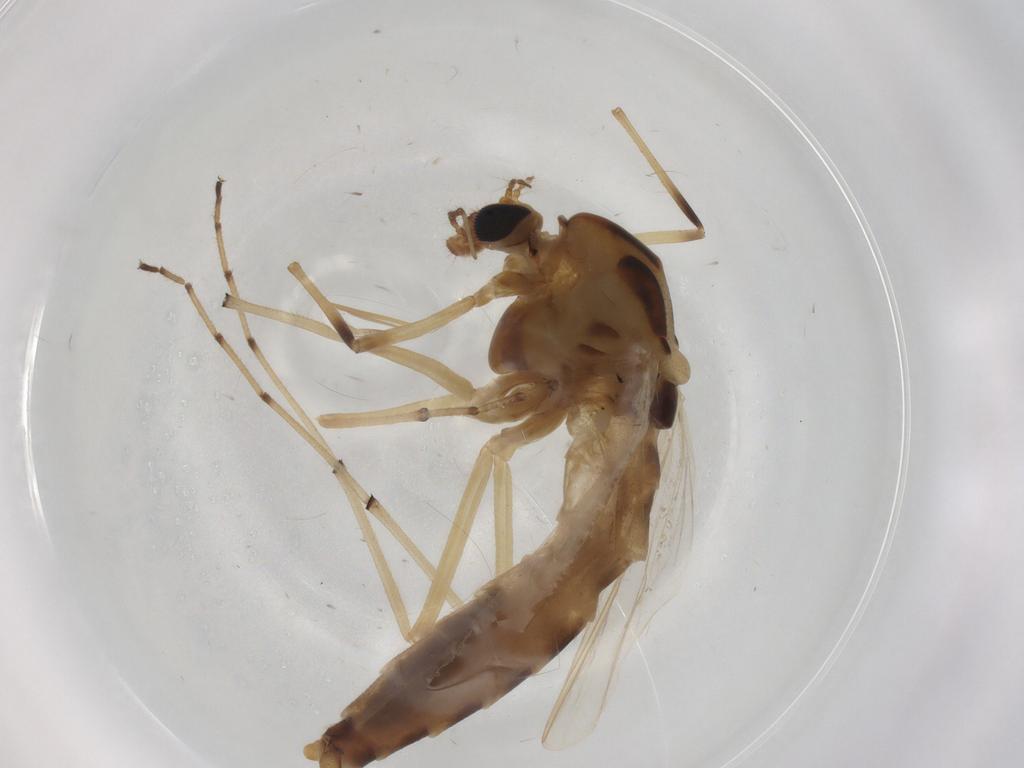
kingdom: Animalia
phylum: Arthropoda
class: Insecta
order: Diptera
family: Chironomidae
